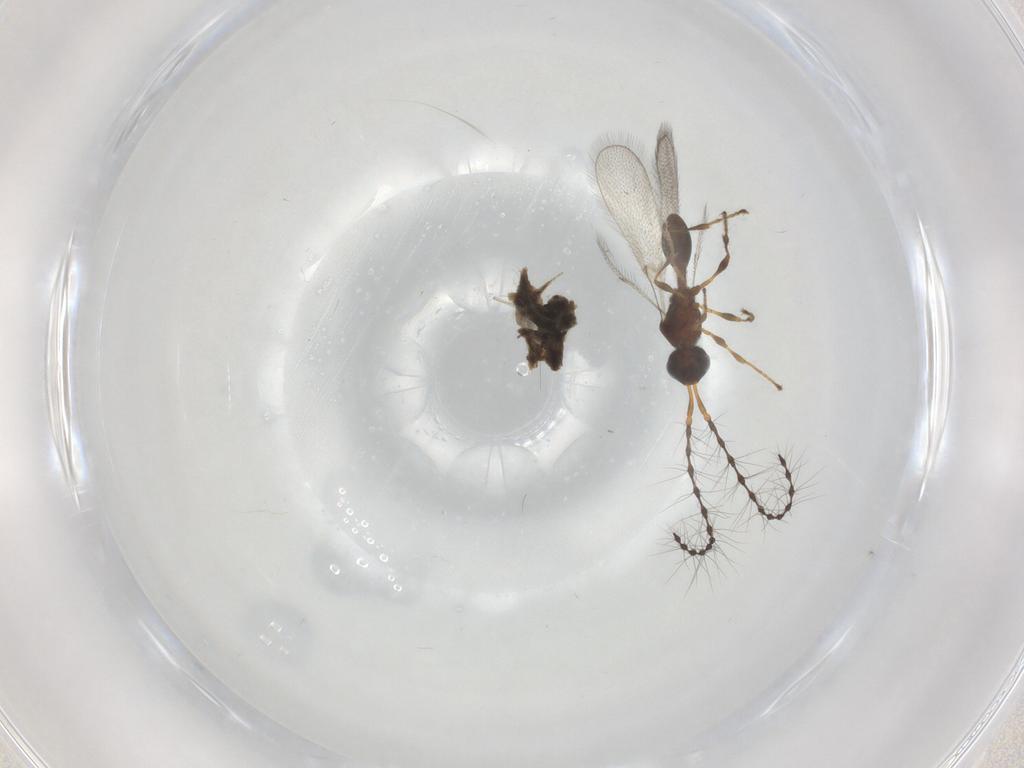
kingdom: Animalia
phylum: Arthropoda
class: Insecta
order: Hymenoptera
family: Diapriidae
